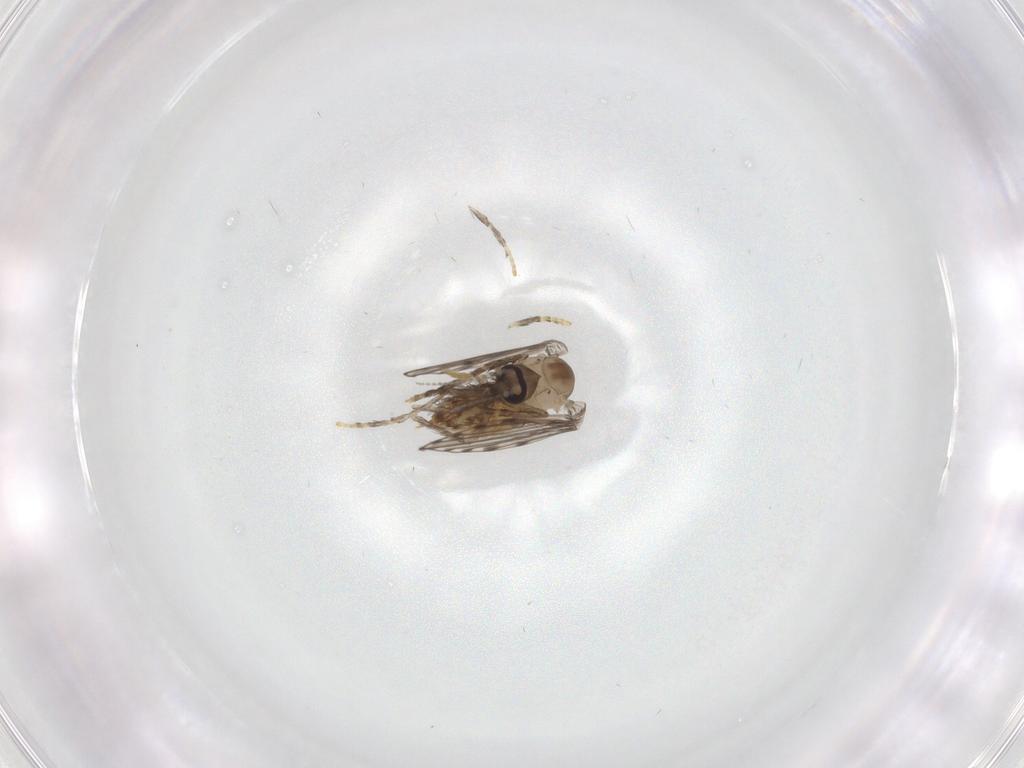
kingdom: Animalia
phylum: Arthropoda
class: Insecta
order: Diptera
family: Psychodidae
